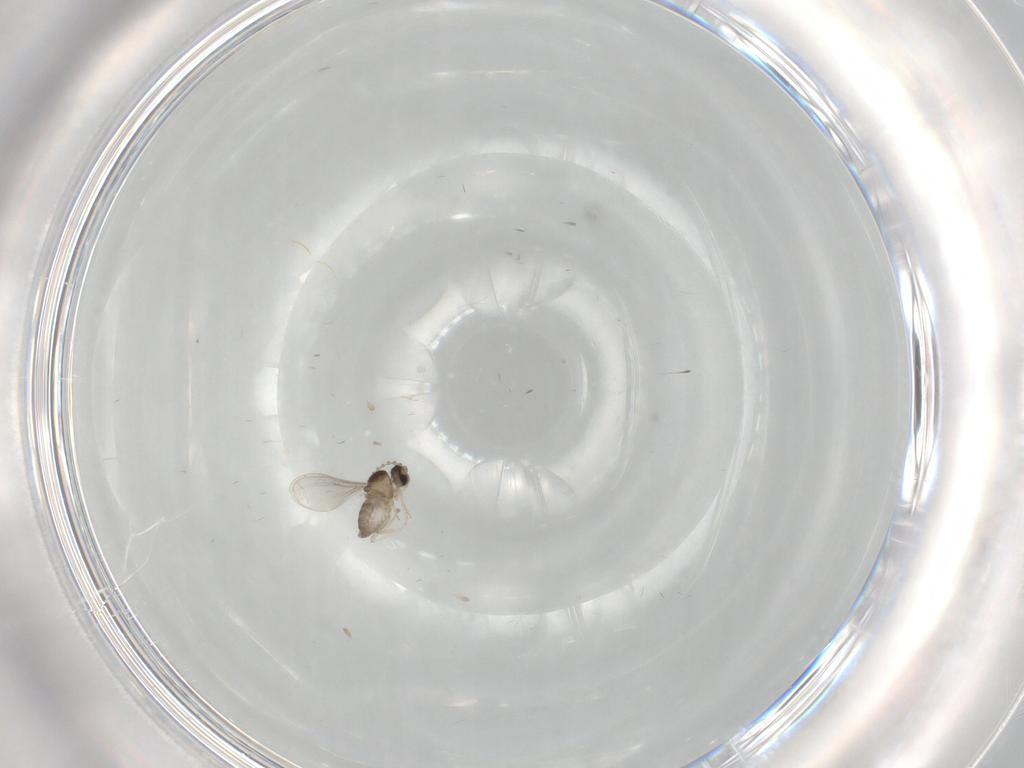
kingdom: Animalia
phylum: Arthropoda
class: Insecta
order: Diptera
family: Cecidomyiidae
